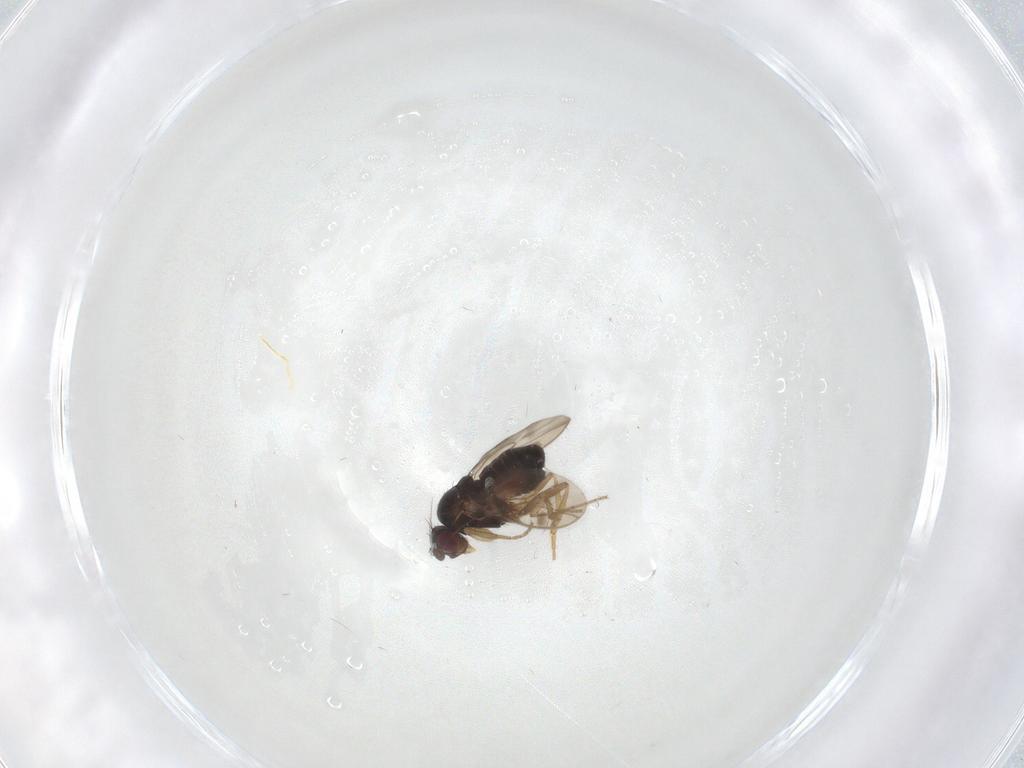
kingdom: Animalia
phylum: Arthropoda
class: Insecta
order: Diptera
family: Sphaeroceridae
